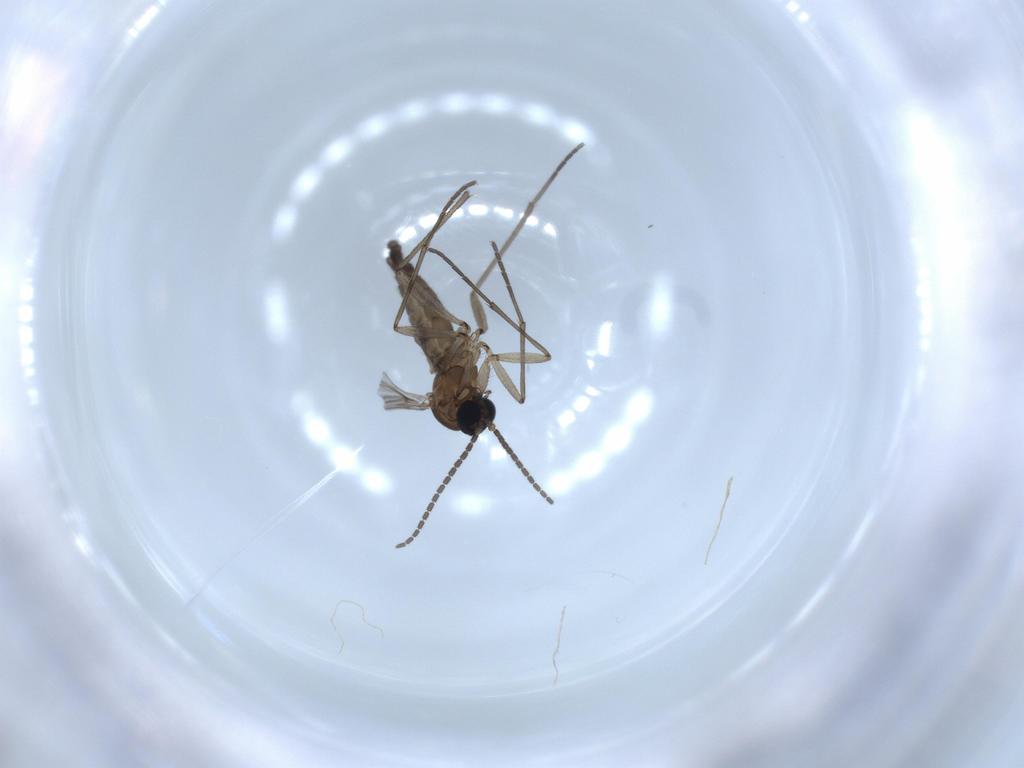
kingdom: Animalia
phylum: Arthropoda
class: Insecta
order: Diptera
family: Sciaridae
